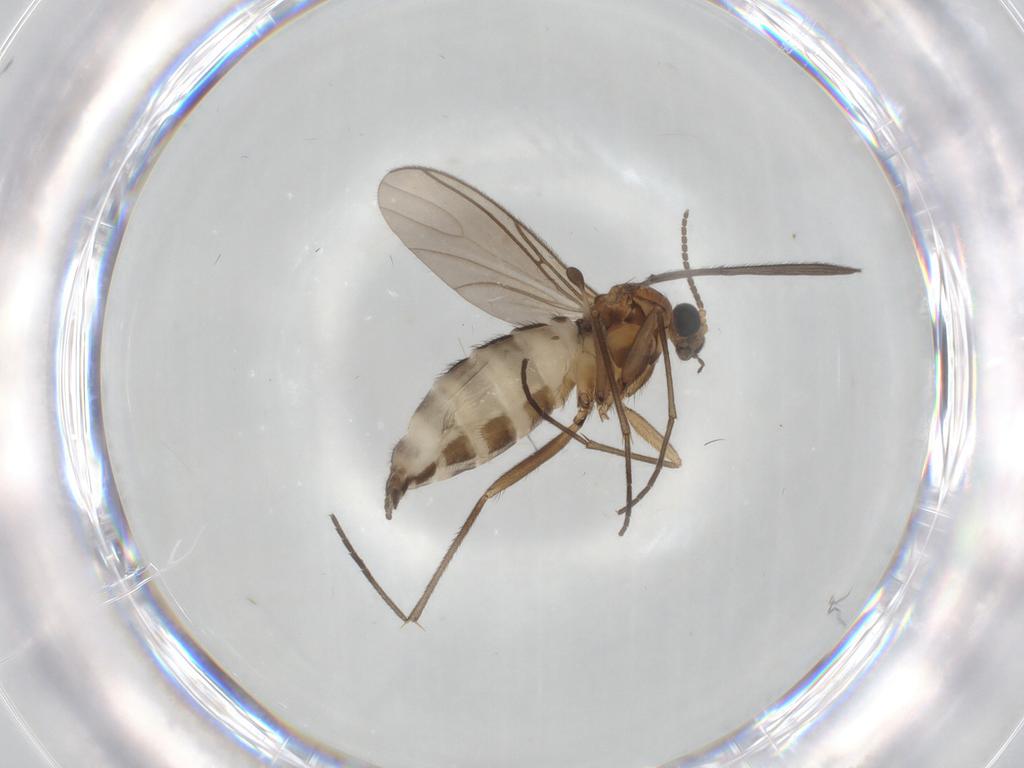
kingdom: Animalia
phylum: Arthropoda
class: Insecta
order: Diptera
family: Sciaridae
